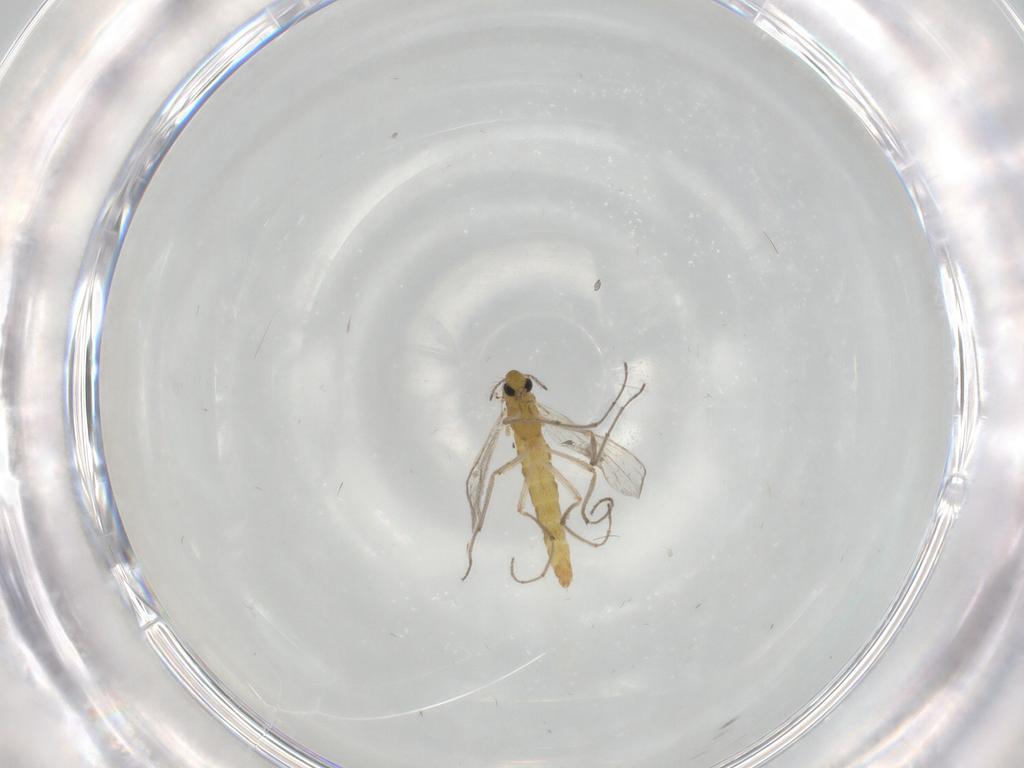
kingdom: Animalia
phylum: Arthropoda
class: Insecta
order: Diptera
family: Chironomidae
